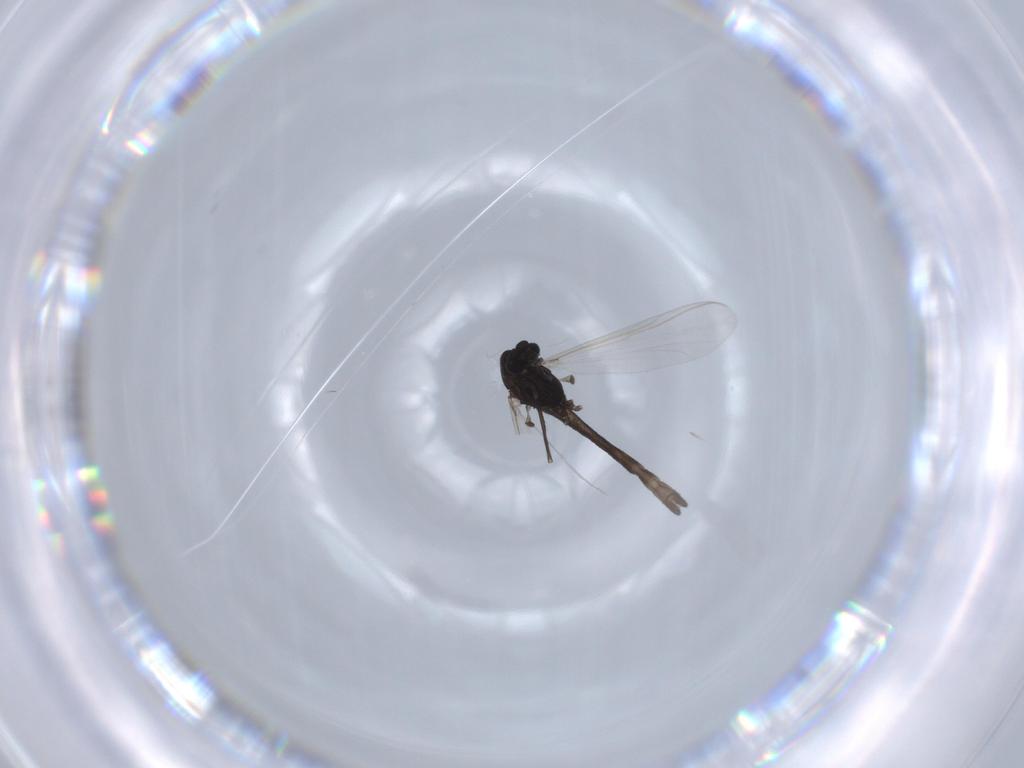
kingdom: Animalia
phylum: Arthropoda
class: Insecta
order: Diptera
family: Chironomidae
